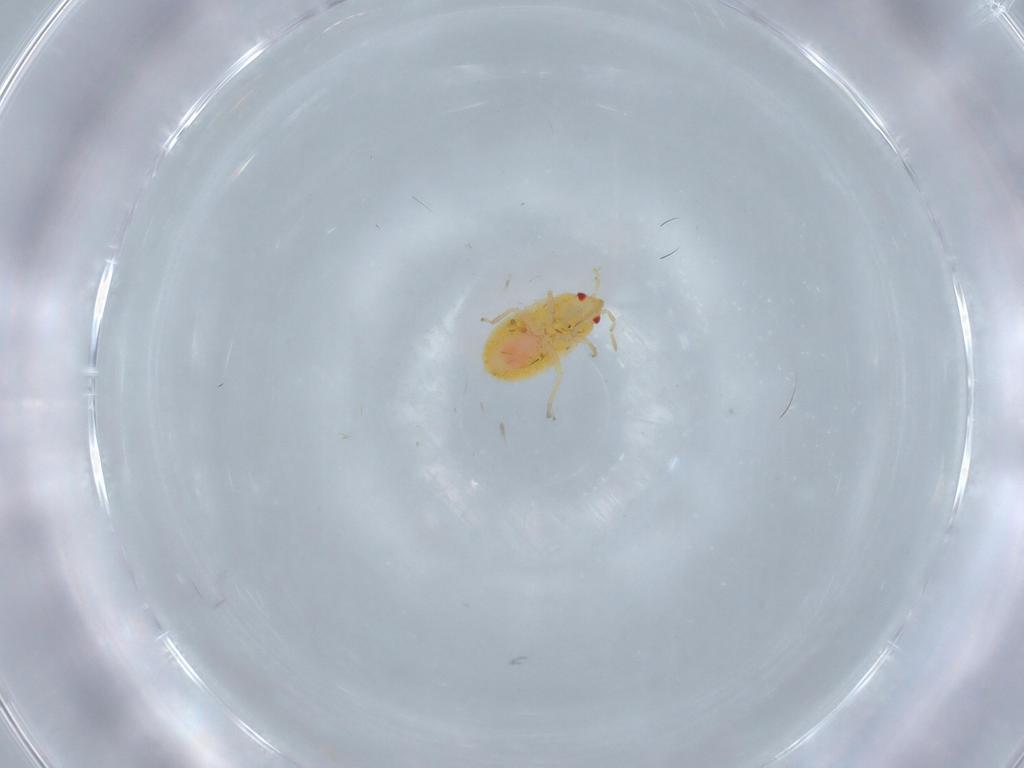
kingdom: Animalia
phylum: Arthropoda
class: Insecta
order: Hemiptera
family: Anthocoridae
